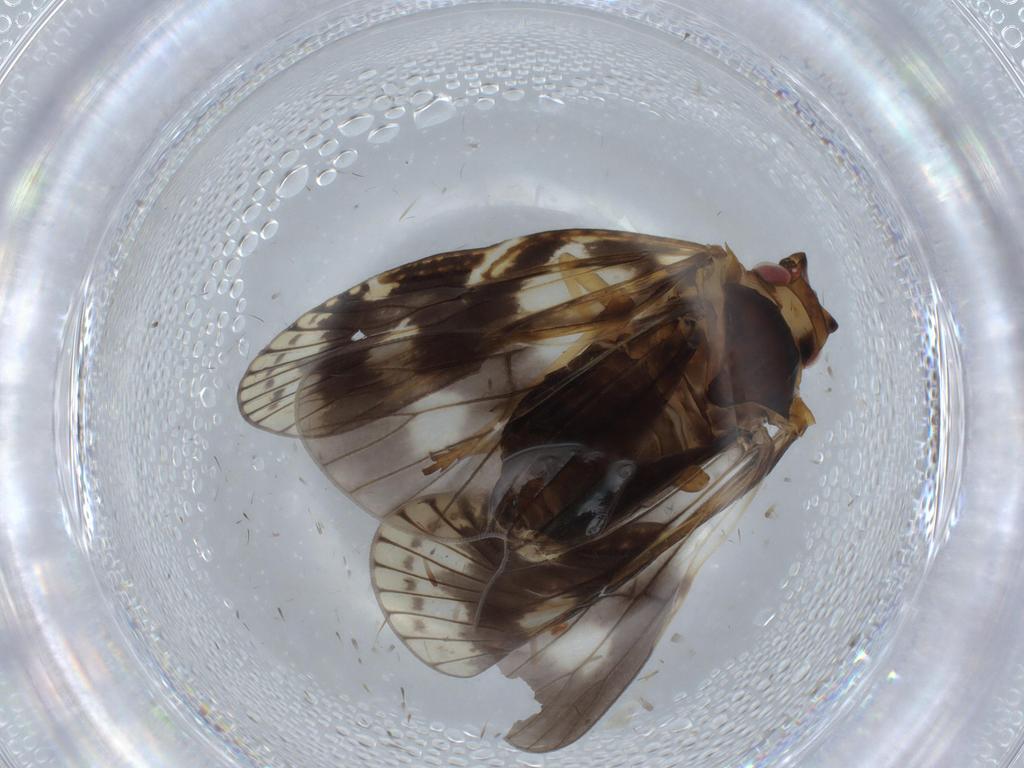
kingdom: Animalia
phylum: Arthropoda
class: Insecta
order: Hemiptera
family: Cixiidae
